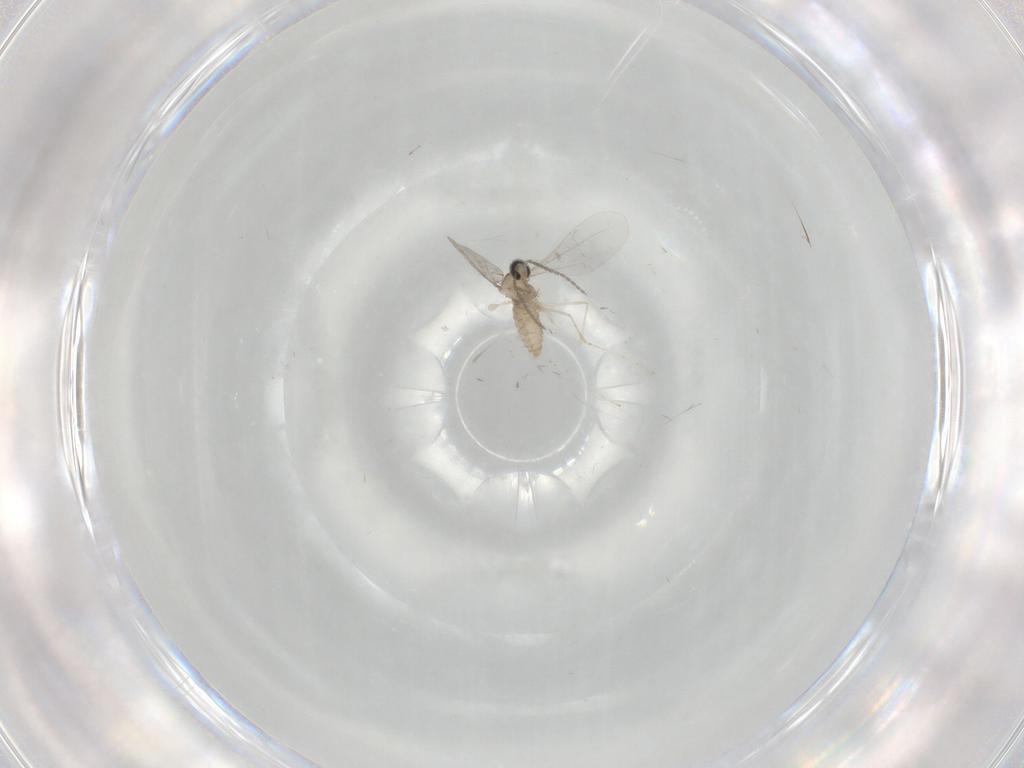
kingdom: Animalia
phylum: Arthropoda
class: Insecta
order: Diptera
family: Cecidomyiidae
